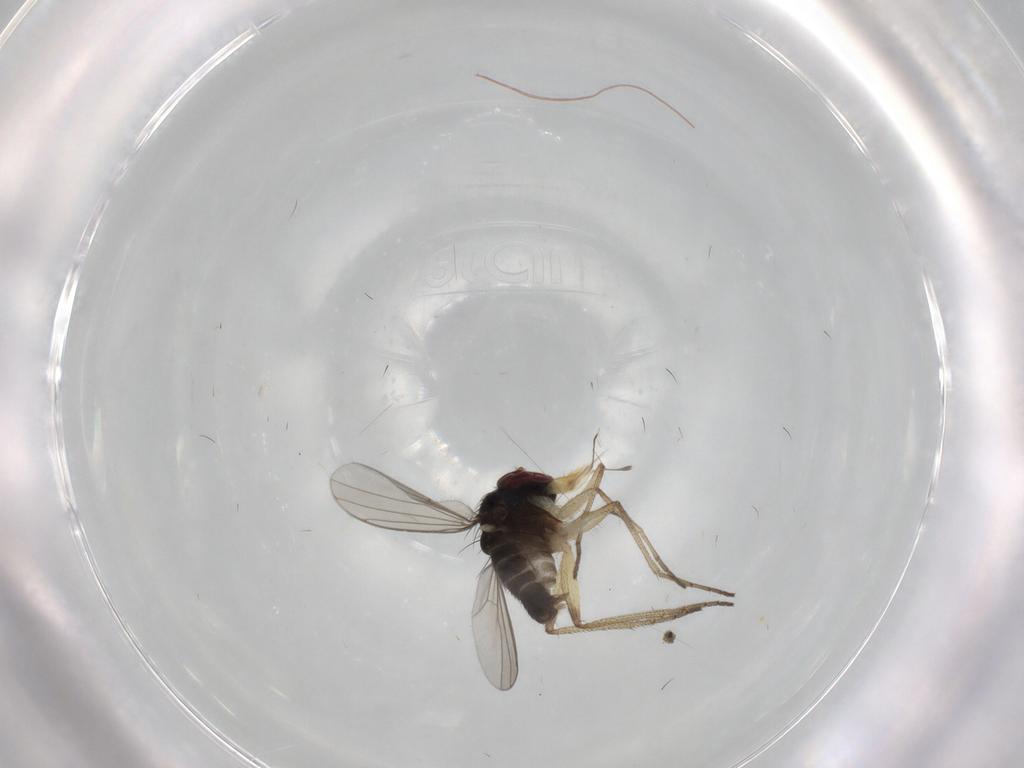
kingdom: Animalia
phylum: Arthropoda
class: Insecta
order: Diptera
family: Dolichopodidae
